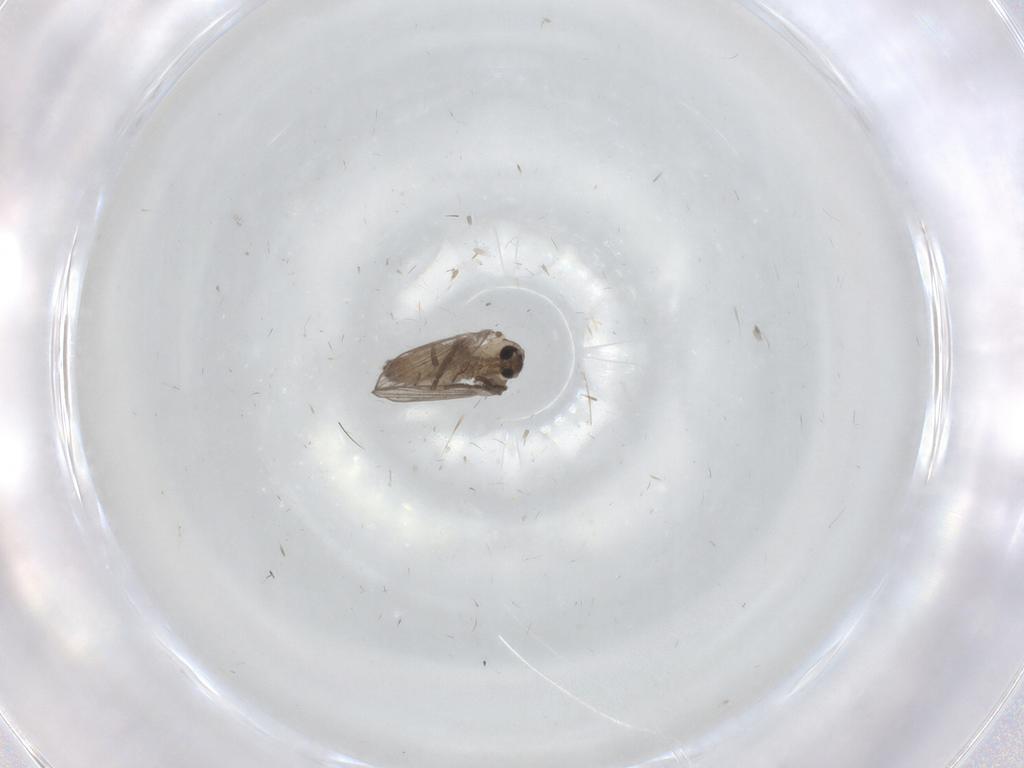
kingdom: Animalia
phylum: Arthropoda
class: Insecta
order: Diptera
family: Psychodidae
